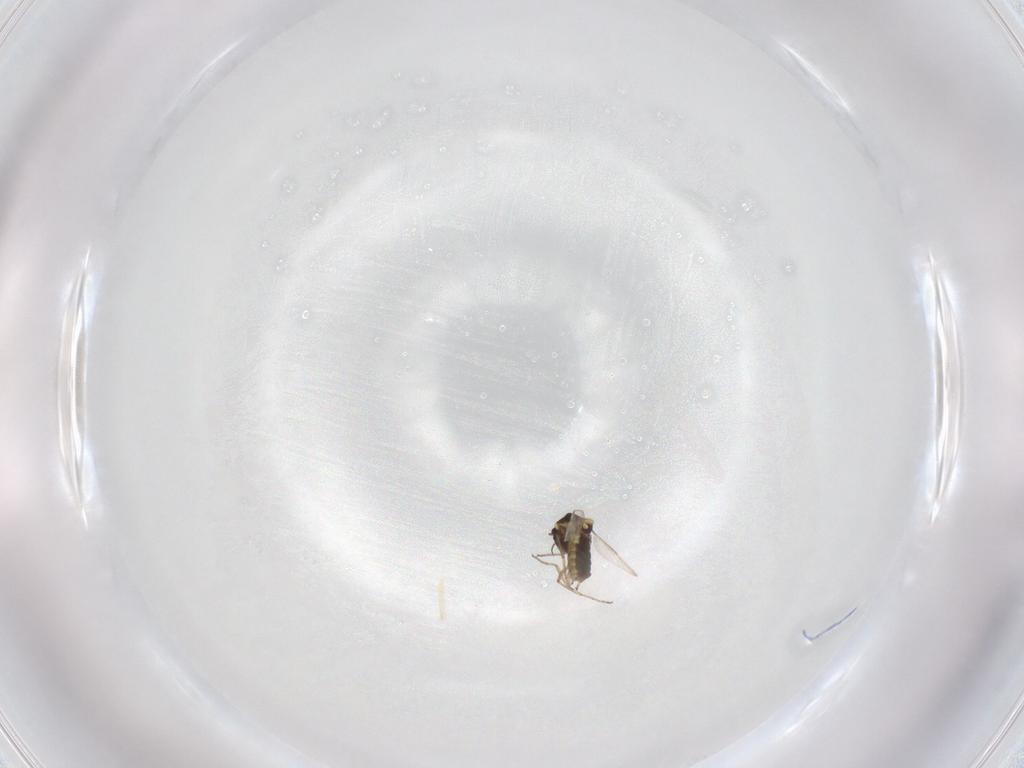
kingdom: Animalia
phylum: Arthropoda
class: Insecta
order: Diptera
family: Ceratopogonidae
